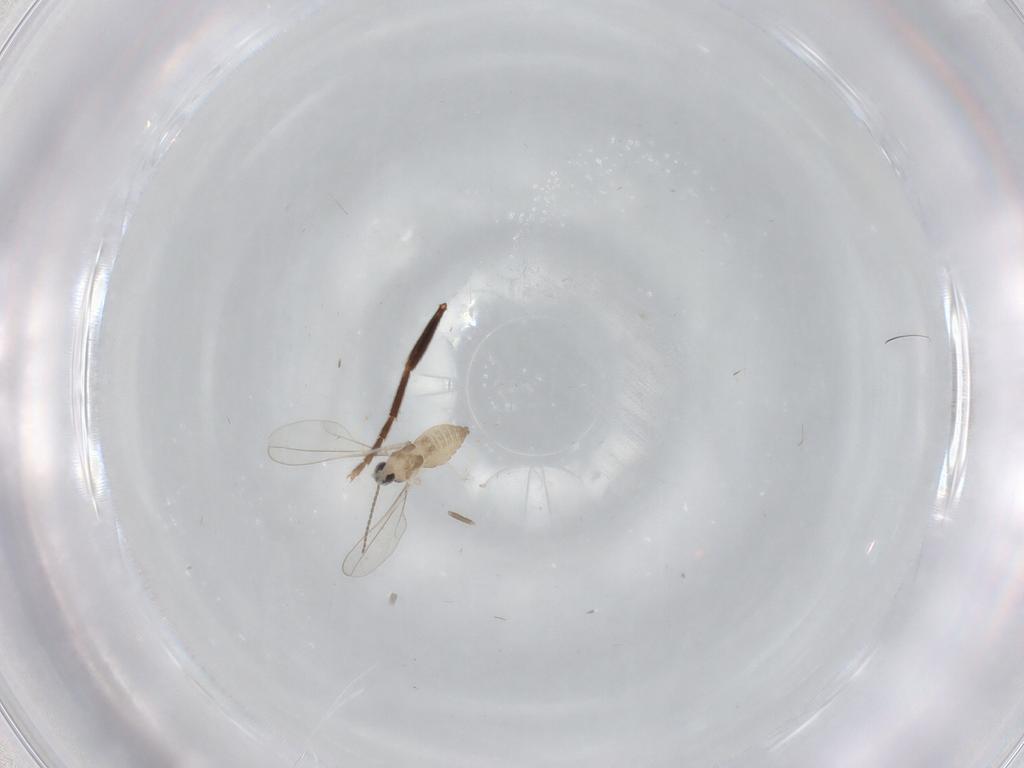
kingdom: Animalia
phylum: Arthropoda
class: Insecta
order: Diptera
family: Cecidomyiidae
